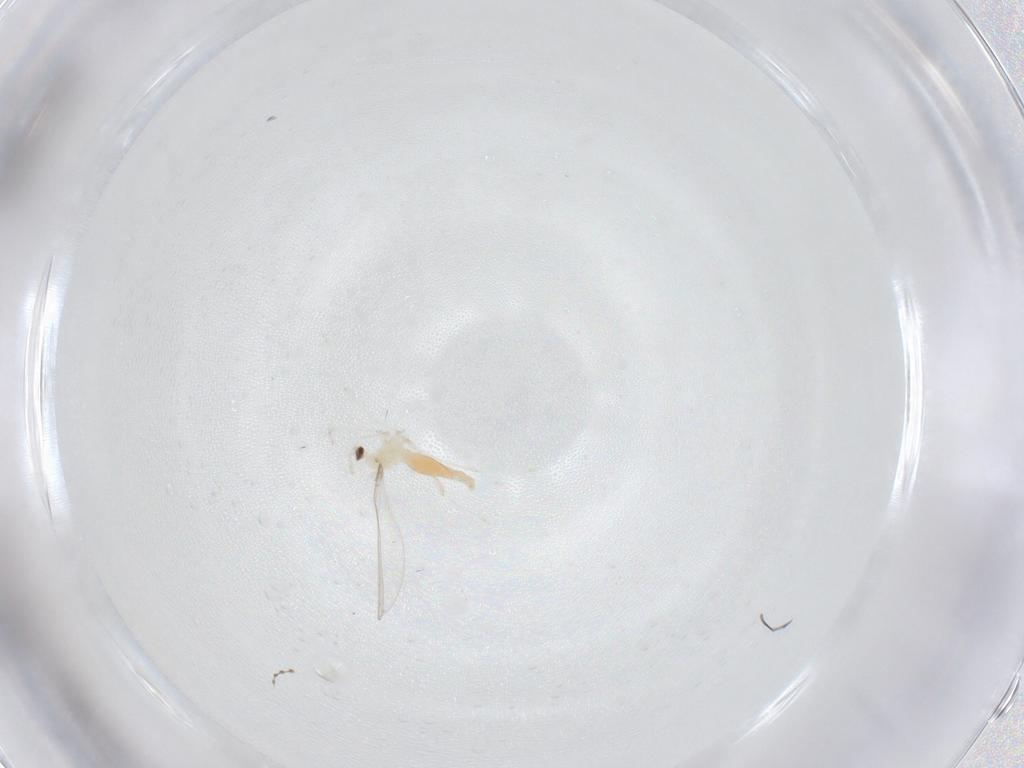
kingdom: Animalia
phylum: Arthropoda
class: Insecta
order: Diptera
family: Cecidomyiidae
